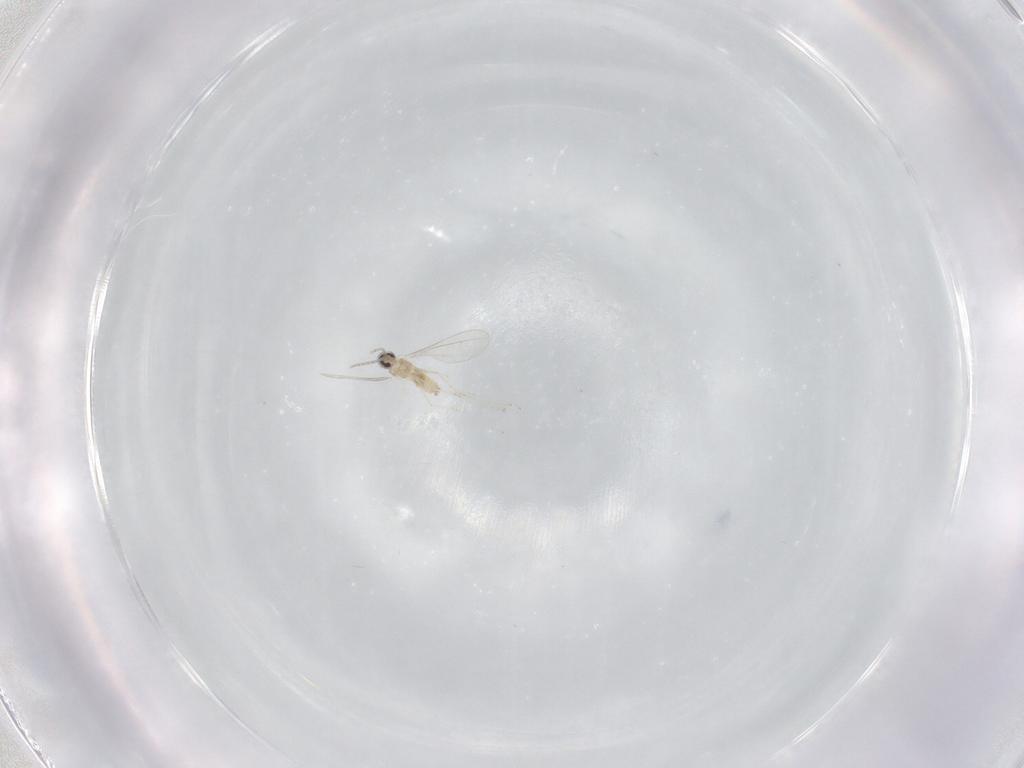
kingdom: Animalia
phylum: Arthropoda
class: Insecta
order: Diptera
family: Cecidomyiidae
